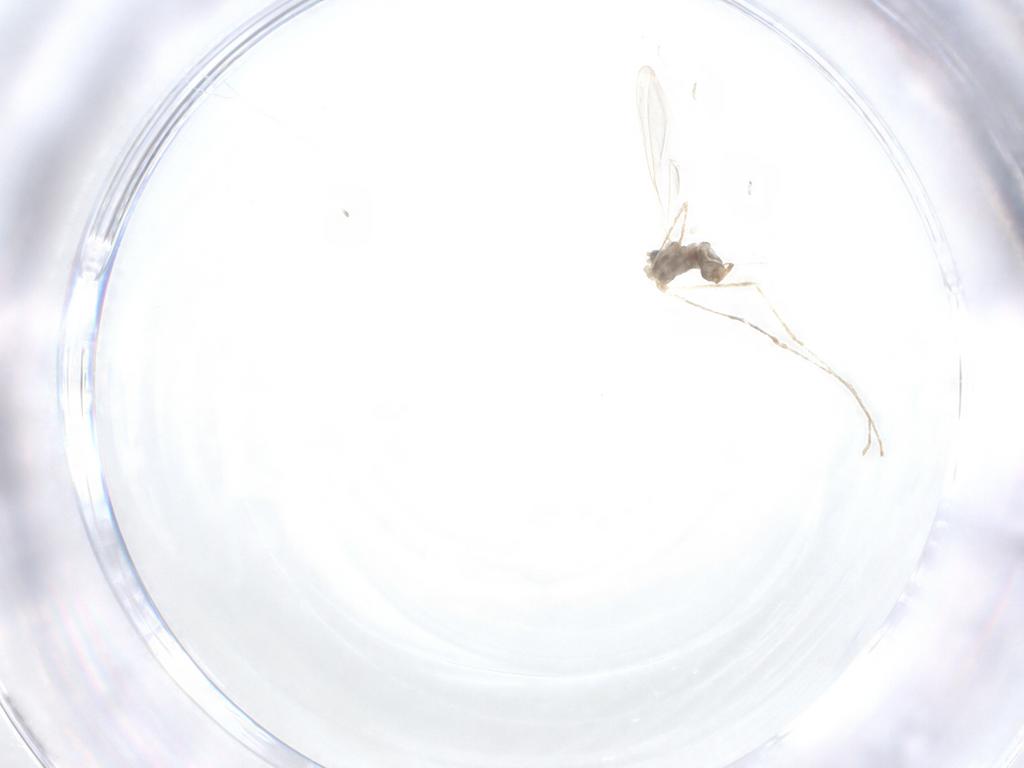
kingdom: Animalia
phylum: Arthropoda
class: Insecta
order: Diptera
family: Cecidomyiidae
